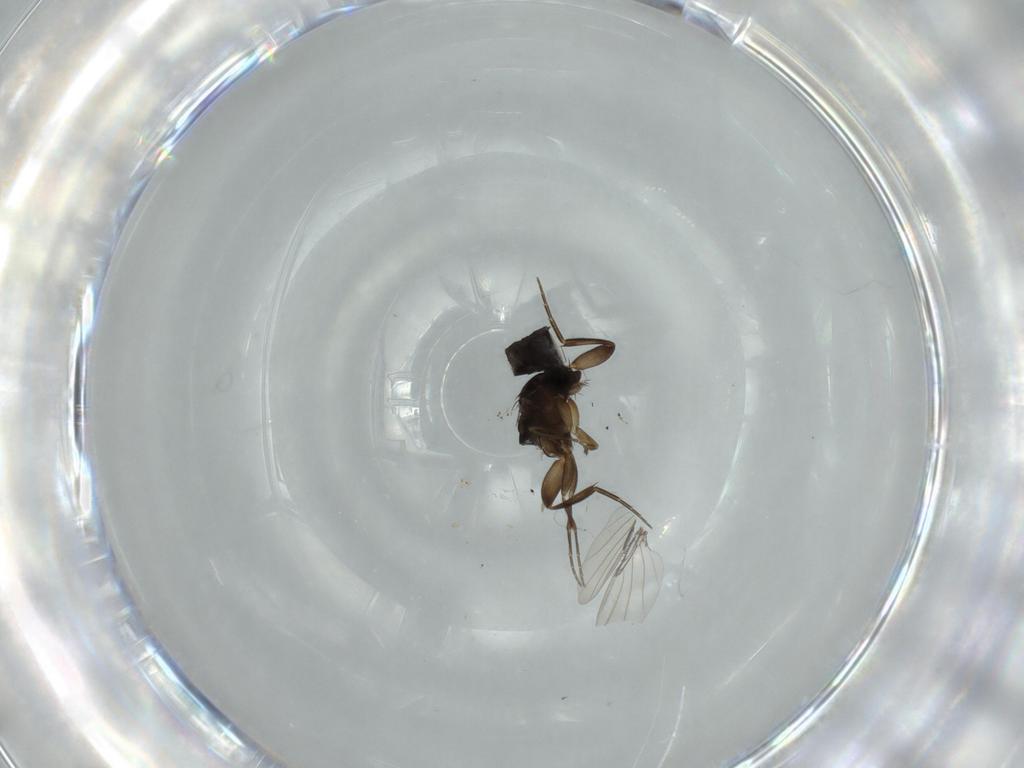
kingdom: Animalia
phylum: Arthropoda
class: Insecta
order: Diptera
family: Phoridae
